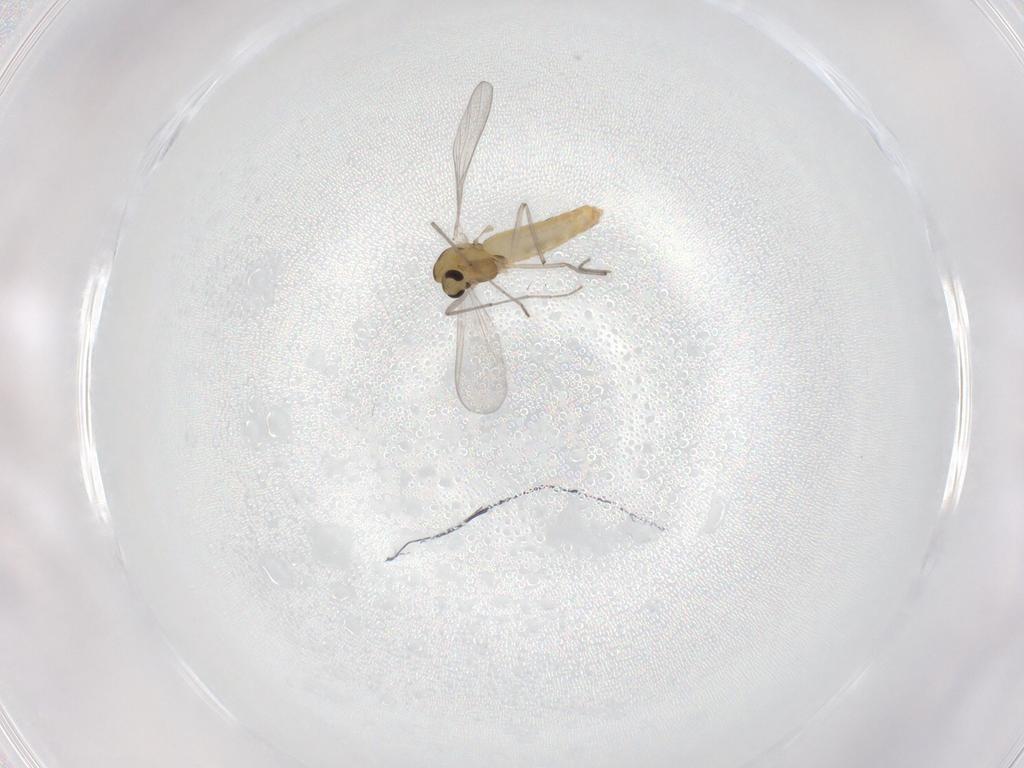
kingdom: Animalia
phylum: Arthropoda
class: Insecta
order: Diptera
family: Chironomidae
